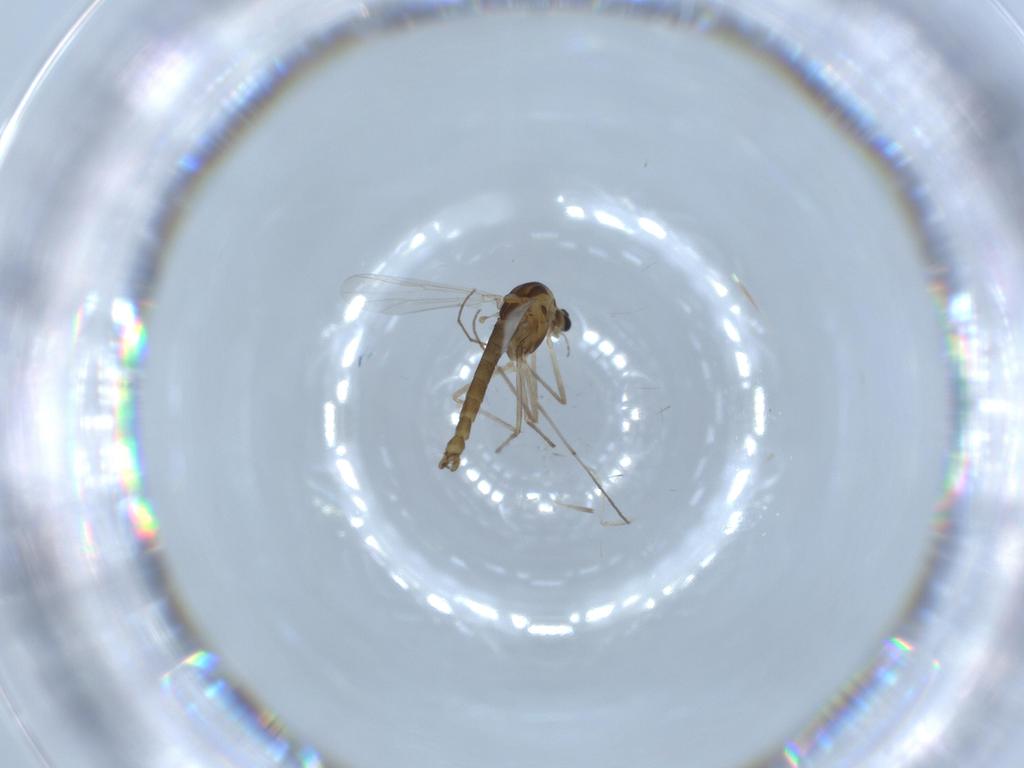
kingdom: Animalia
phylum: Arthropoda
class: Insecta
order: Diptera
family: Chironomidae
